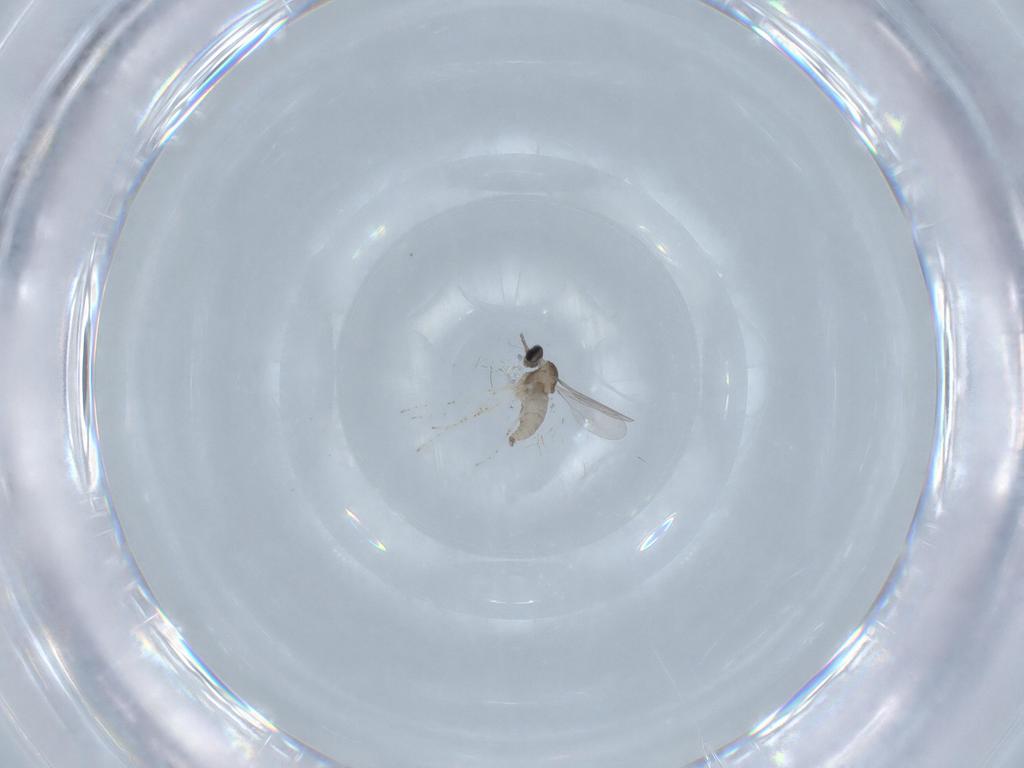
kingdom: Animalia
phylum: Arthropoda
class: Insecta
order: Diptera
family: Cecidomyiidae
